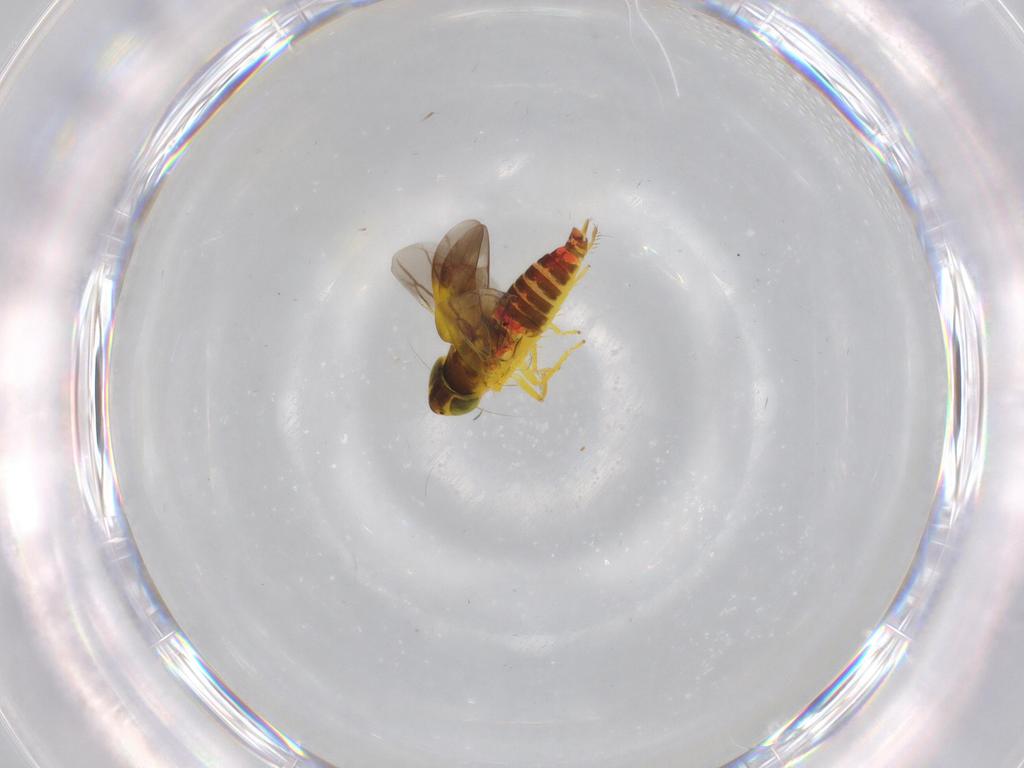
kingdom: Animalia
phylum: Arthropoda
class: Insecta
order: Hemiptera
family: Cicadellidae
